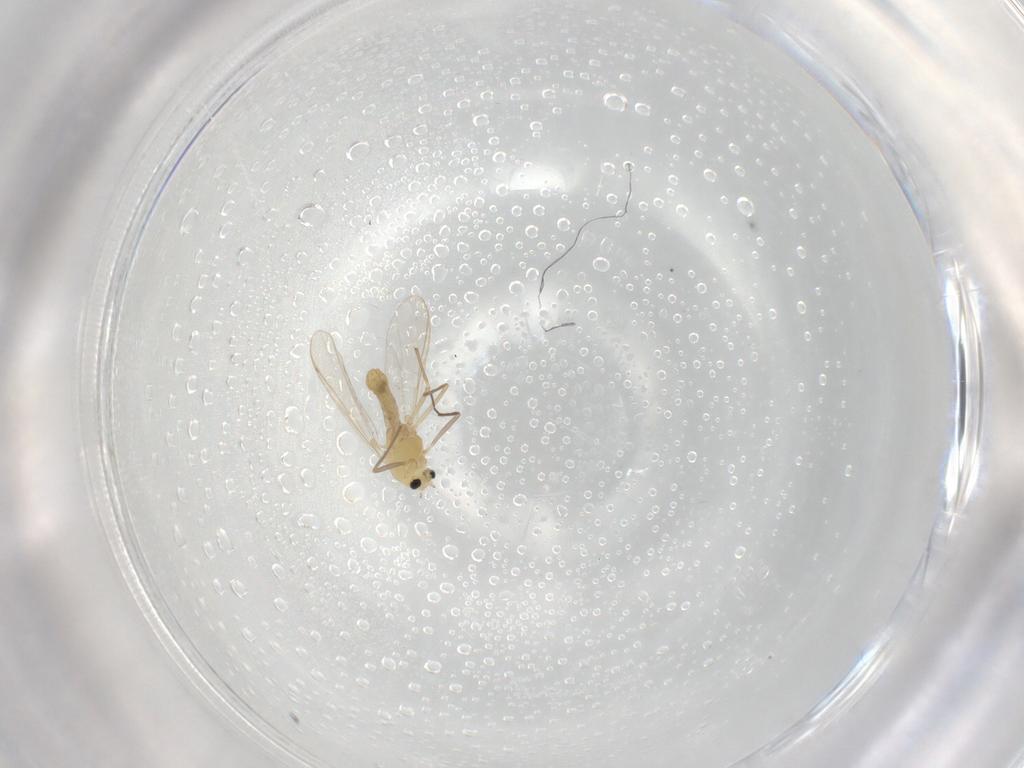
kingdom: Animalia
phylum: Arthropoda
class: Insecta
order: Diptera
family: Chironomidae
